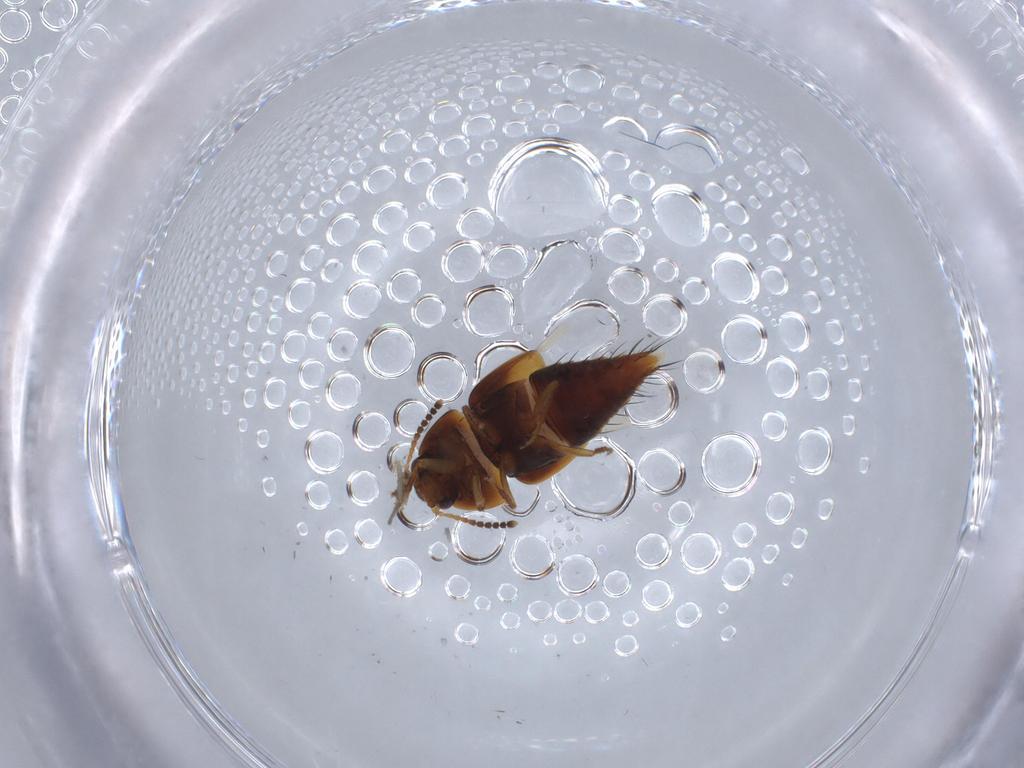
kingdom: Animalia
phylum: Arthropoda
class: Insecta
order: Coleoptera
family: Staphylinidae
